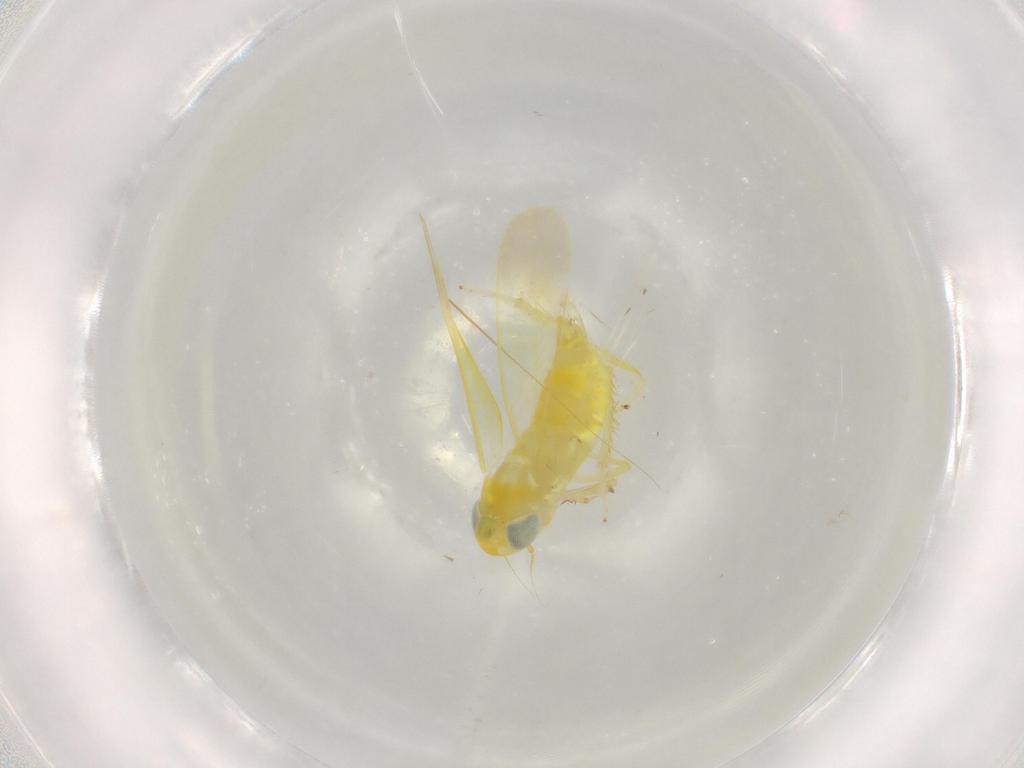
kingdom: Animalia
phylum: Arthropoda
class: Insecta
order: Hemiptera
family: Cicadellidae
